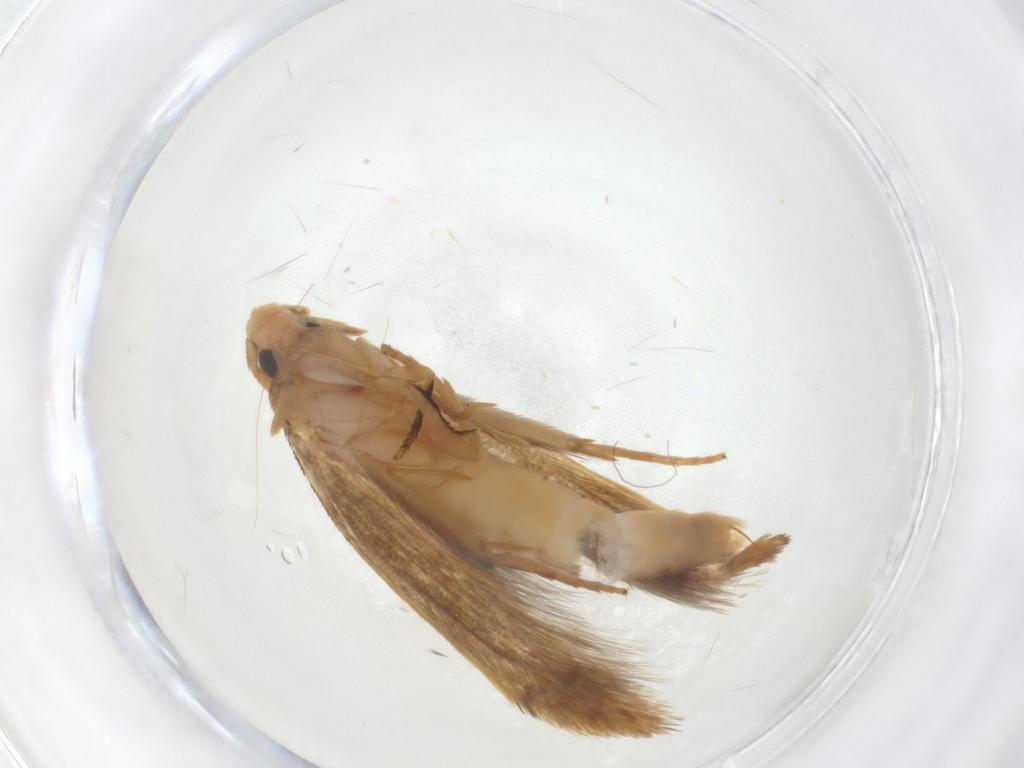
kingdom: Animalia
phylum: Arthropoda
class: Insecta
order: Lepidoptera
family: Tineidae
